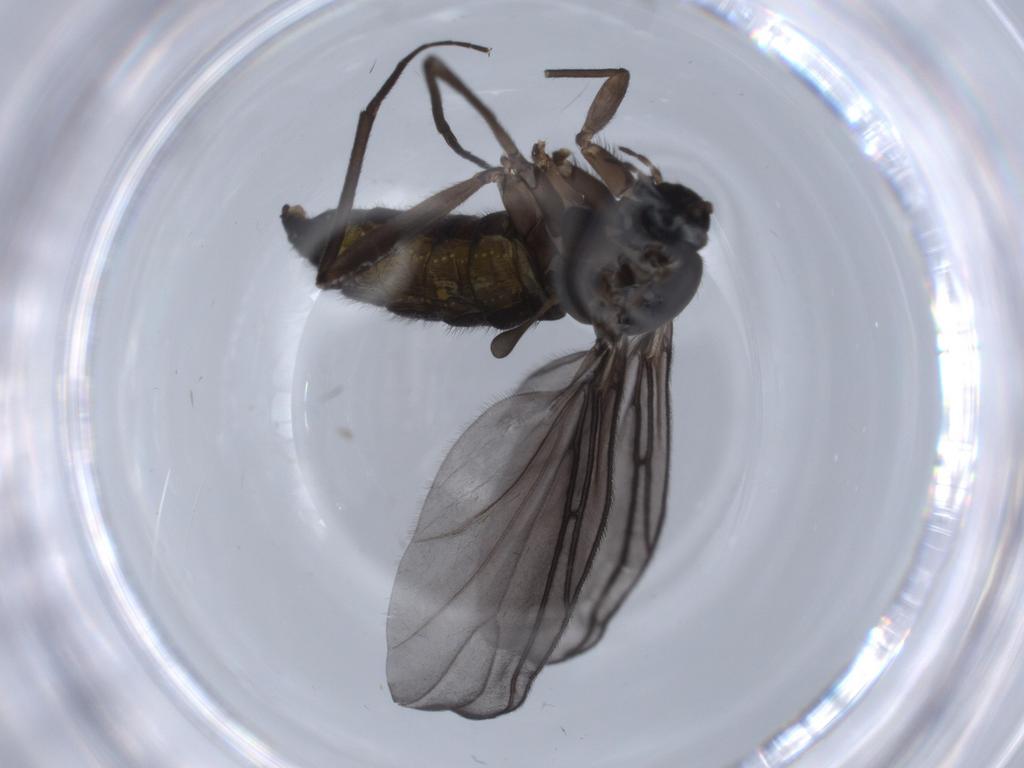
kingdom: Animalia
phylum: Arthropoda
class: Insecta
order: Diptera
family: Sciaridae
